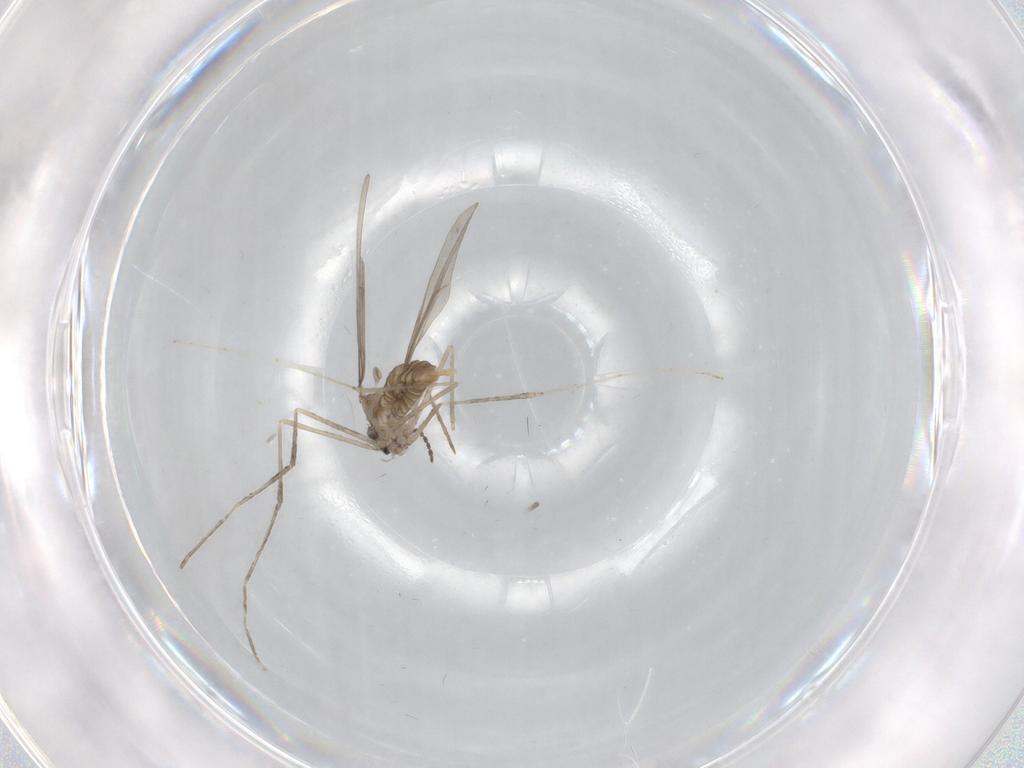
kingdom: Animalia
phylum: Arthropoda
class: Insecta
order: Diptera
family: Cecidomyiidae
